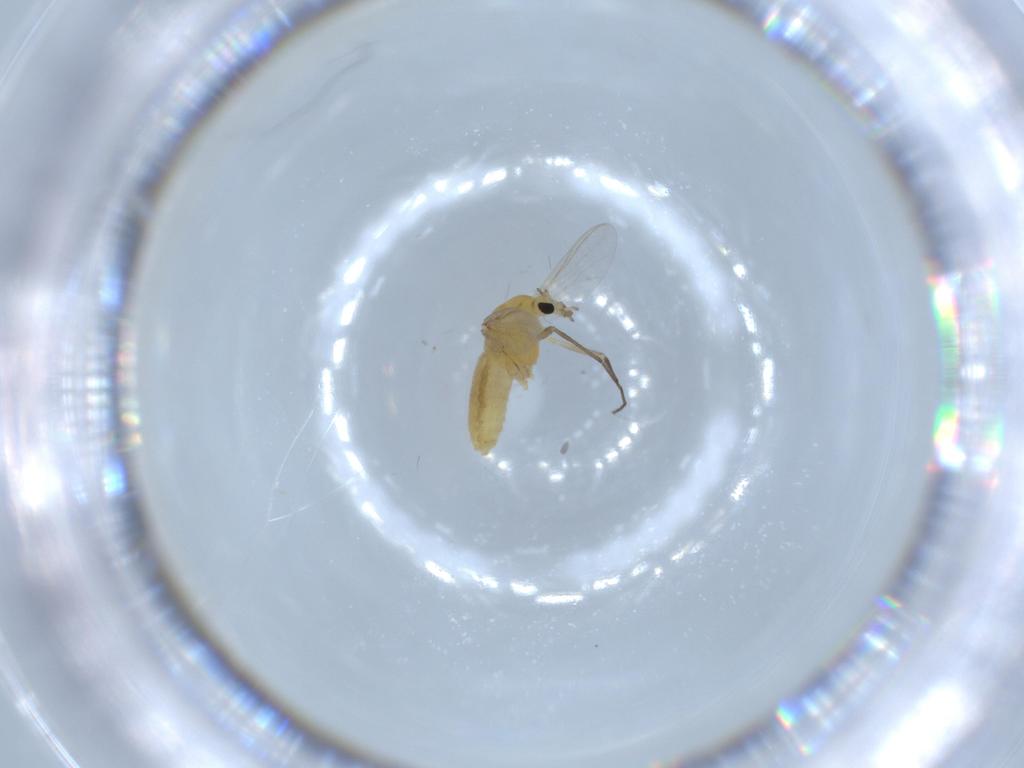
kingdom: Animalia
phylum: Arthropoda
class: Insecta
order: Diptera
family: Chironomidae
